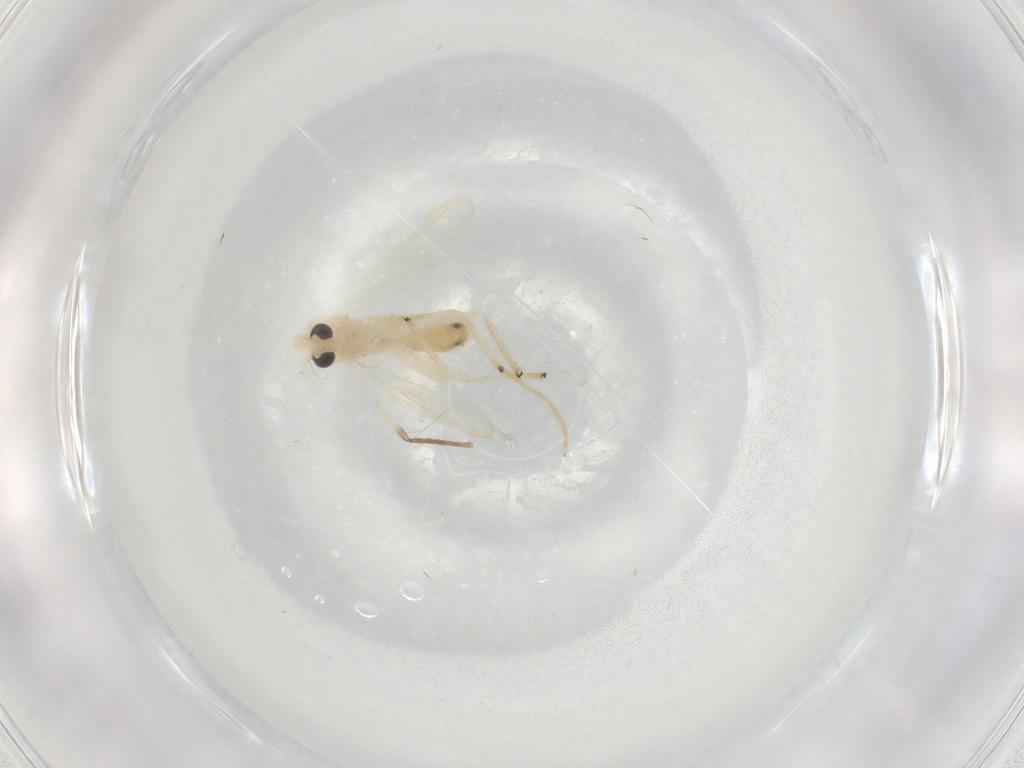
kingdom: Animalia
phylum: Arthropoda
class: Insecta
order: Diptera
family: Chironomidae
